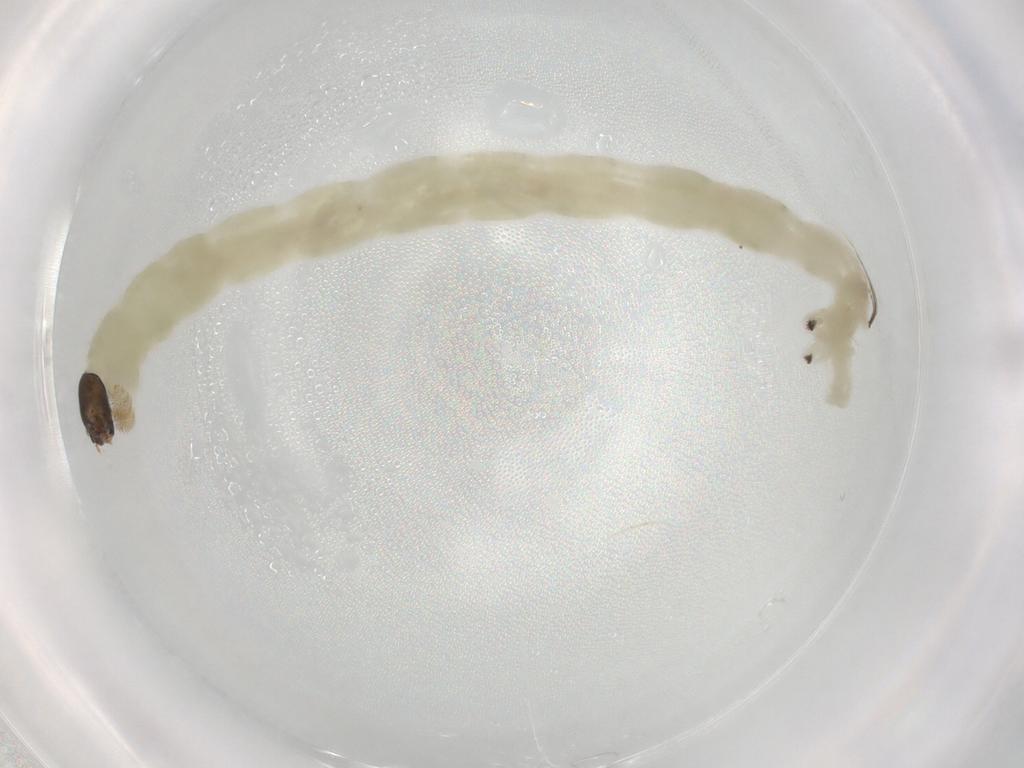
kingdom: Animalia
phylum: Arthropoda
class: Insecta
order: Diptera
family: Chironomidae
